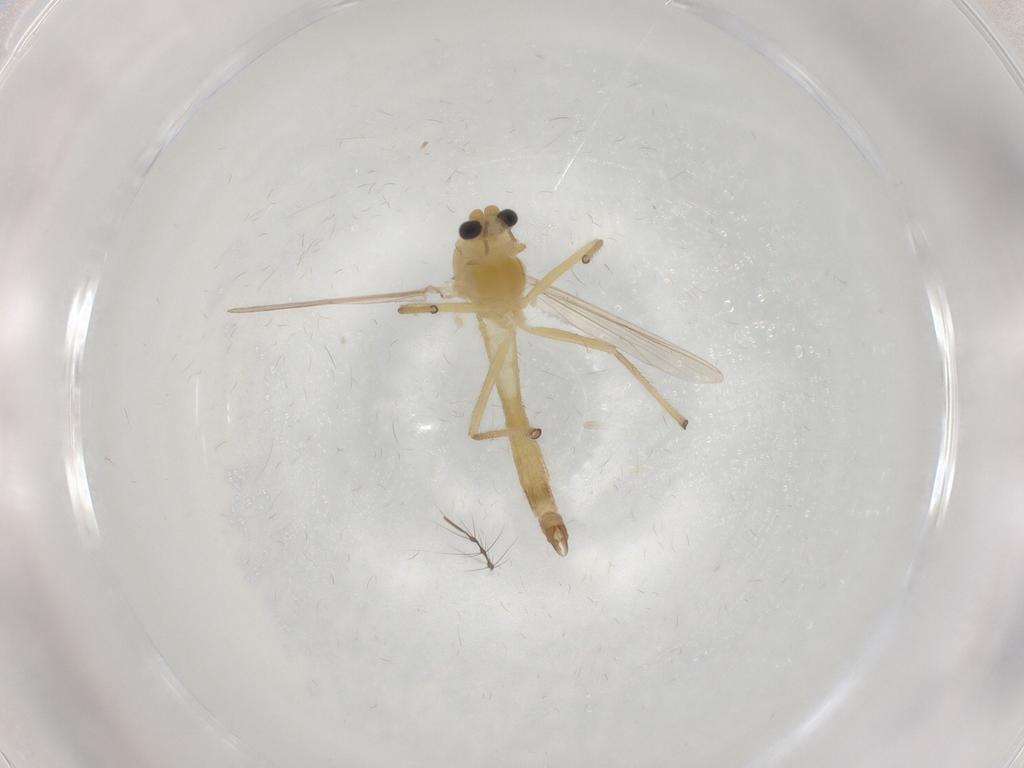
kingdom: Animalia
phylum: Arthropoda
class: Insecta
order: Diptera
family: Chironomidae
